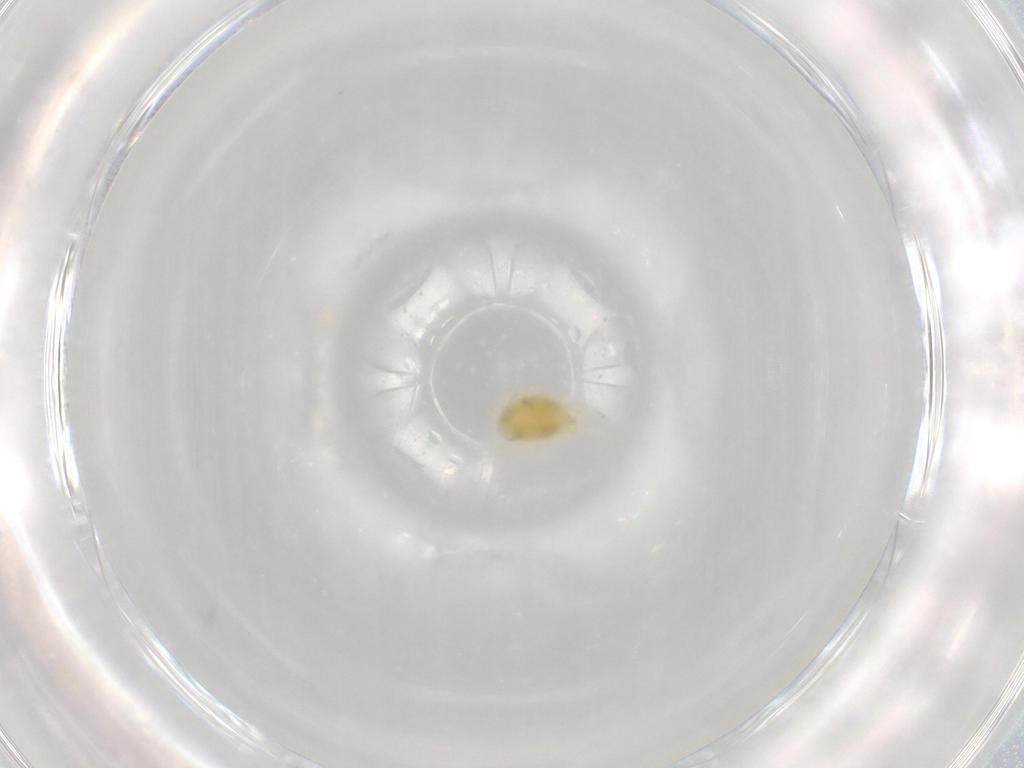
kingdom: Animalia
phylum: Arthropoda
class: Arachnida
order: Trombidiformes
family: Tetranychidae
